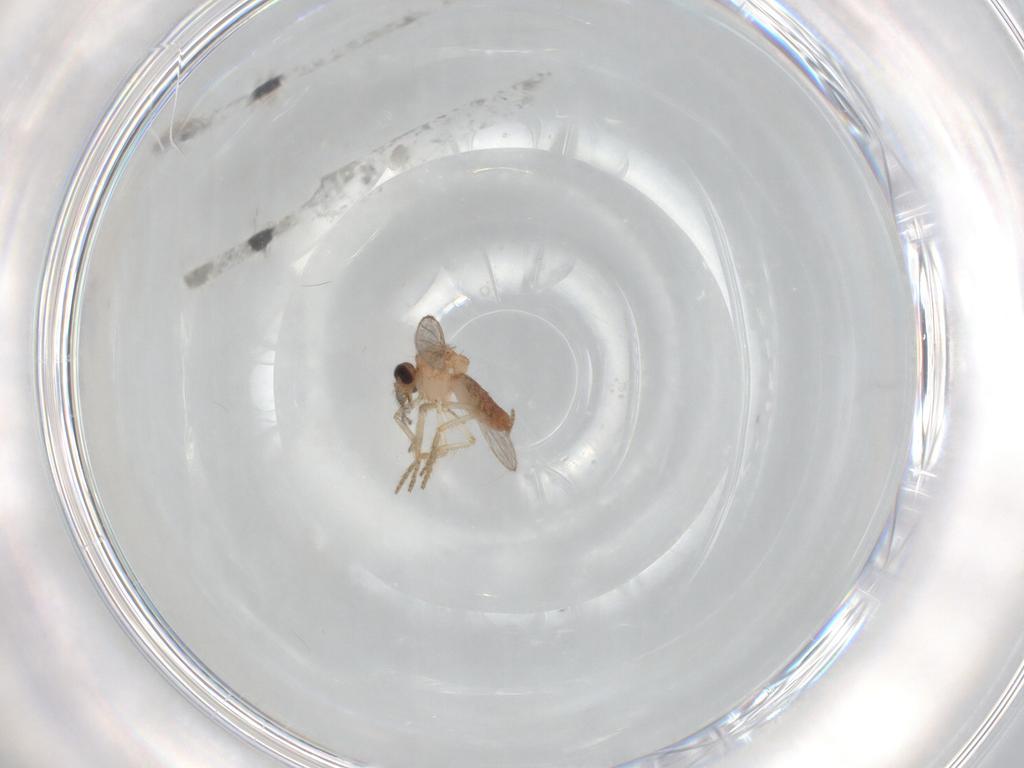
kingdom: Animalia
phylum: Arthropoda
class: Insecta
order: Diptera
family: Ceratopogonidae
